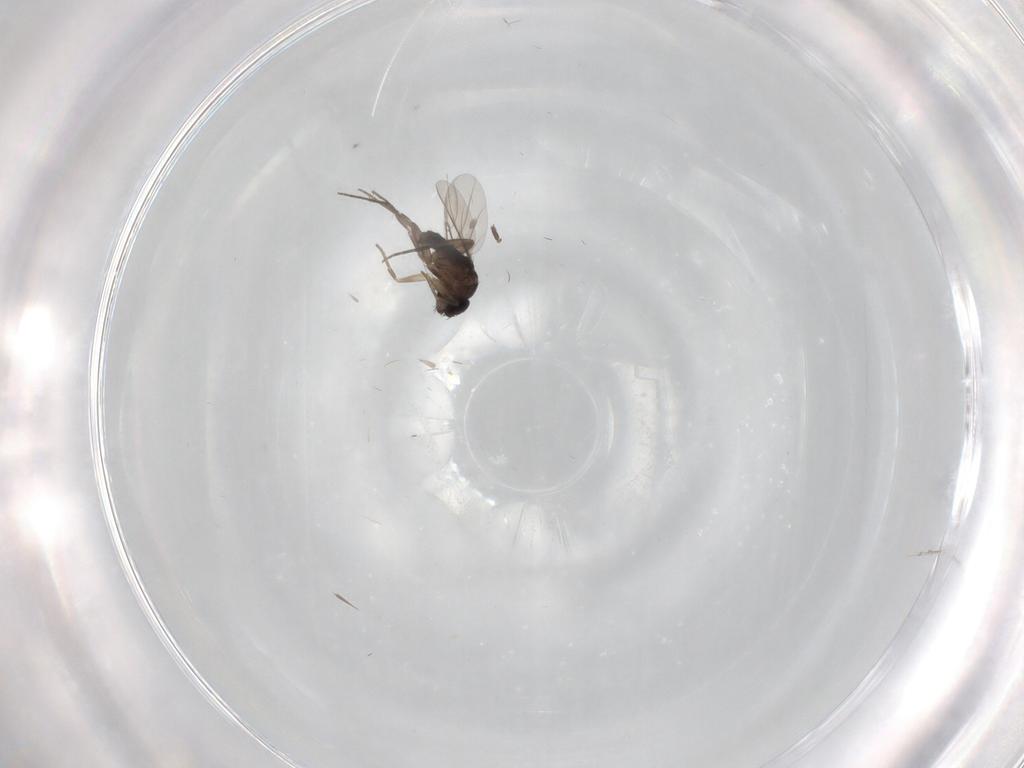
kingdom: Animalia
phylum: Arthropoda
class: Insecta
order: Diptera
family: Phoridae
